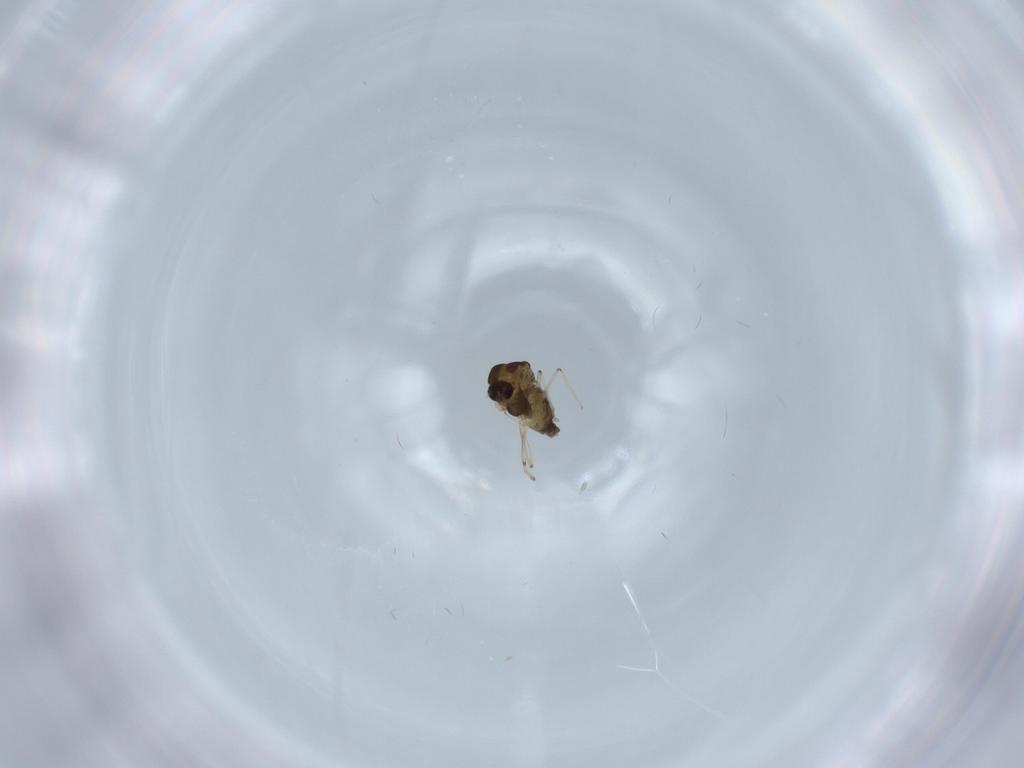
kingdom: Animalia
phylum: Arthropoda
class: Insecta
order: Diptera
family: Chironomidae
